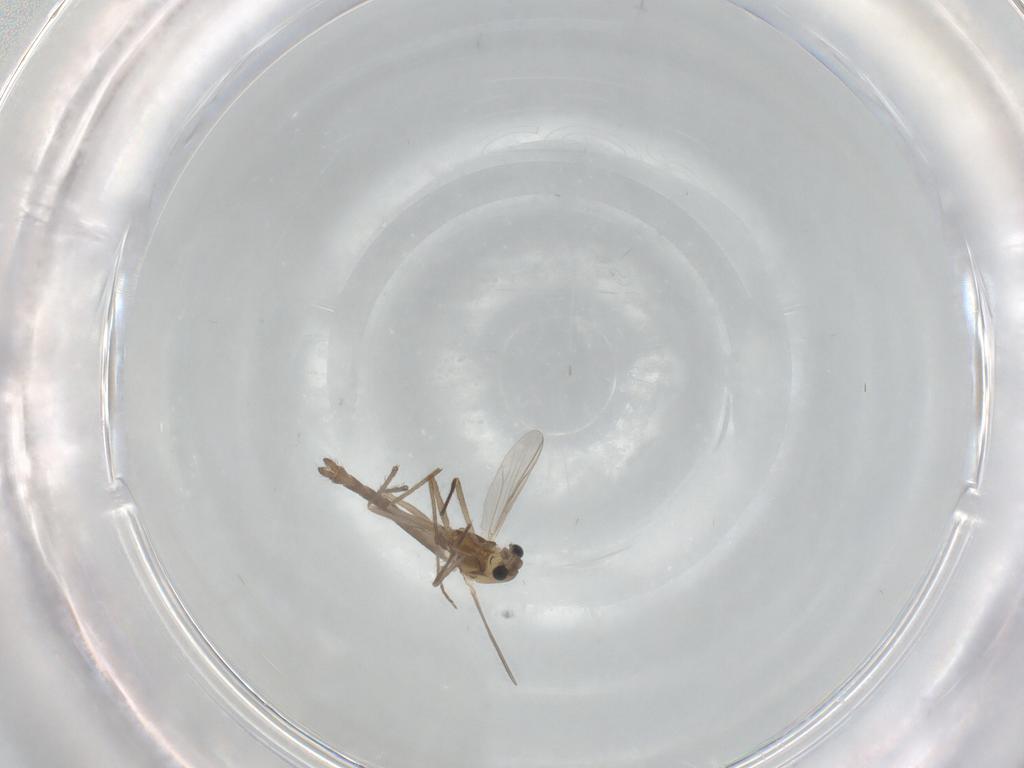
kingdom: Animalia
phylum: Arthropoda
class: Insecta
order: Diptera
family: Chironomidae
